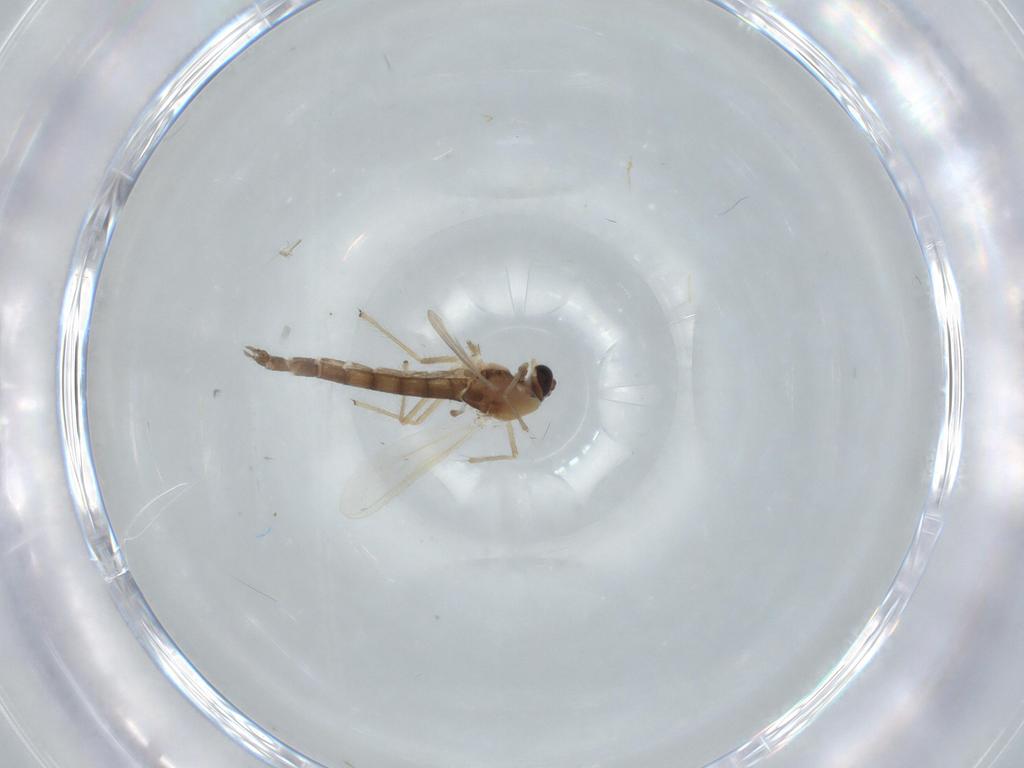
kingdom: Animalia
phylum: Arthropoda
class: Insecta
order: Diptera
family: Chironomidae
